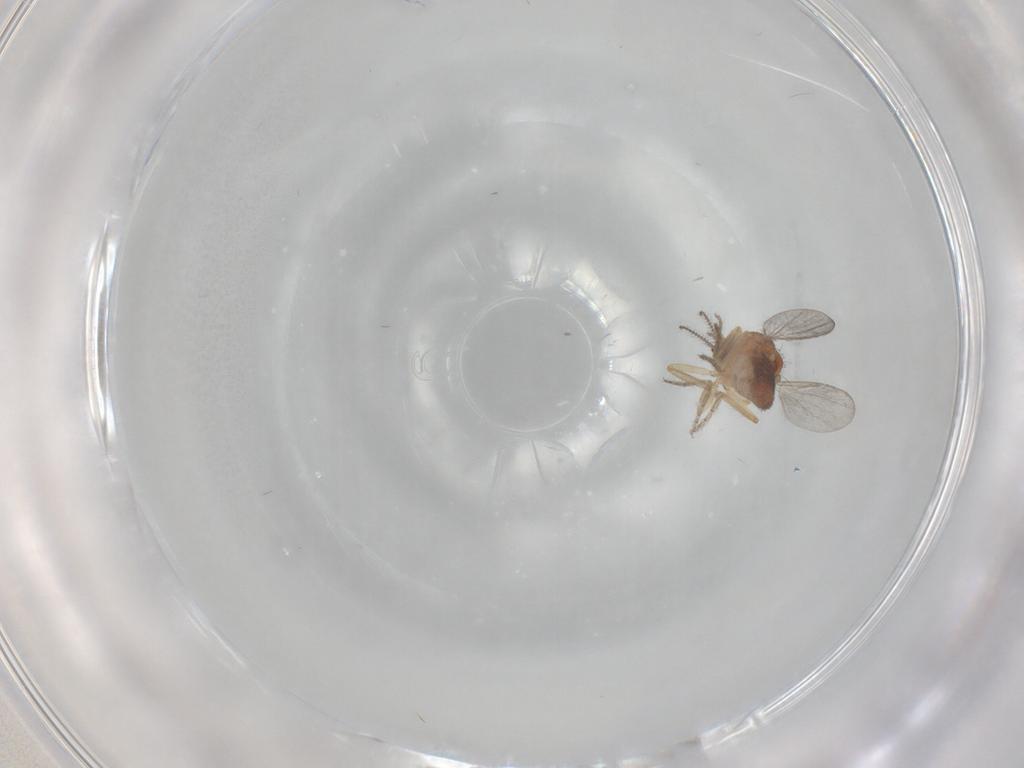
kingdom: Animalia
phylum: Arthropoda
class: Insecta
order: Diptera
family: Ceratopogonidae
